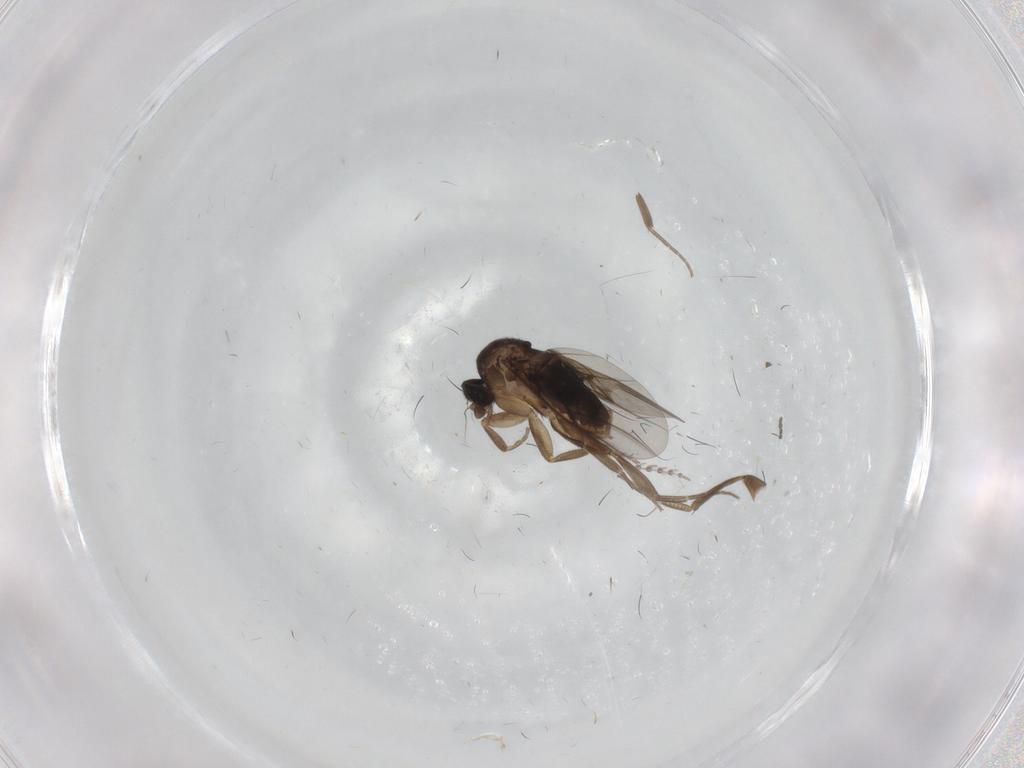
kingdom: Animalia
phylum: Arthropoda
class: Insecta
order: Diptera
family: Phoridae
